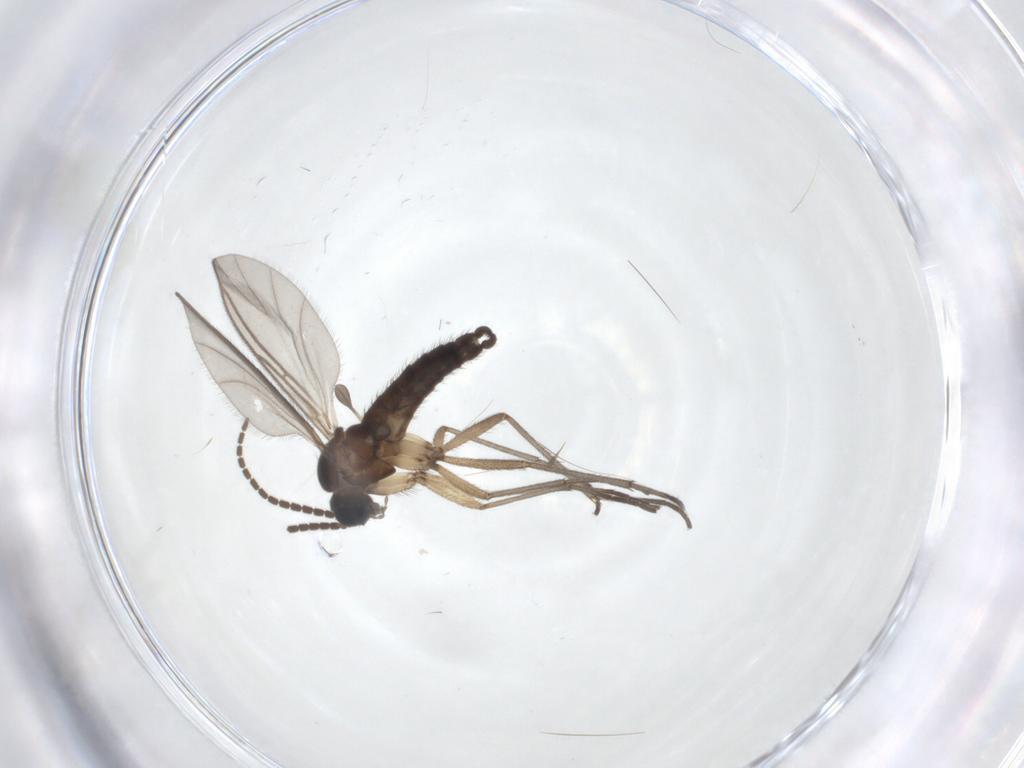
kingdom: Animalia
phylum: Arthropoda
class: Insecta
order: Diptera
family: Sciaridae
